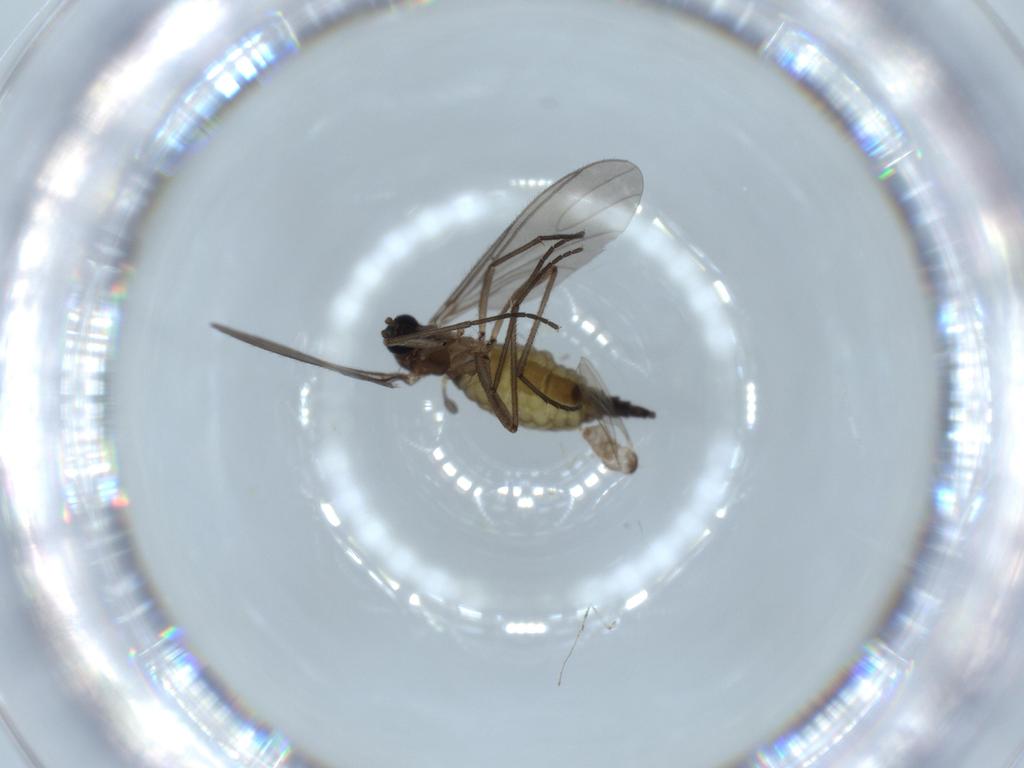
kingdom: Animalia
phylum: Arthropoda
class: Insecta
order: Diptera
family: Sciaridae
